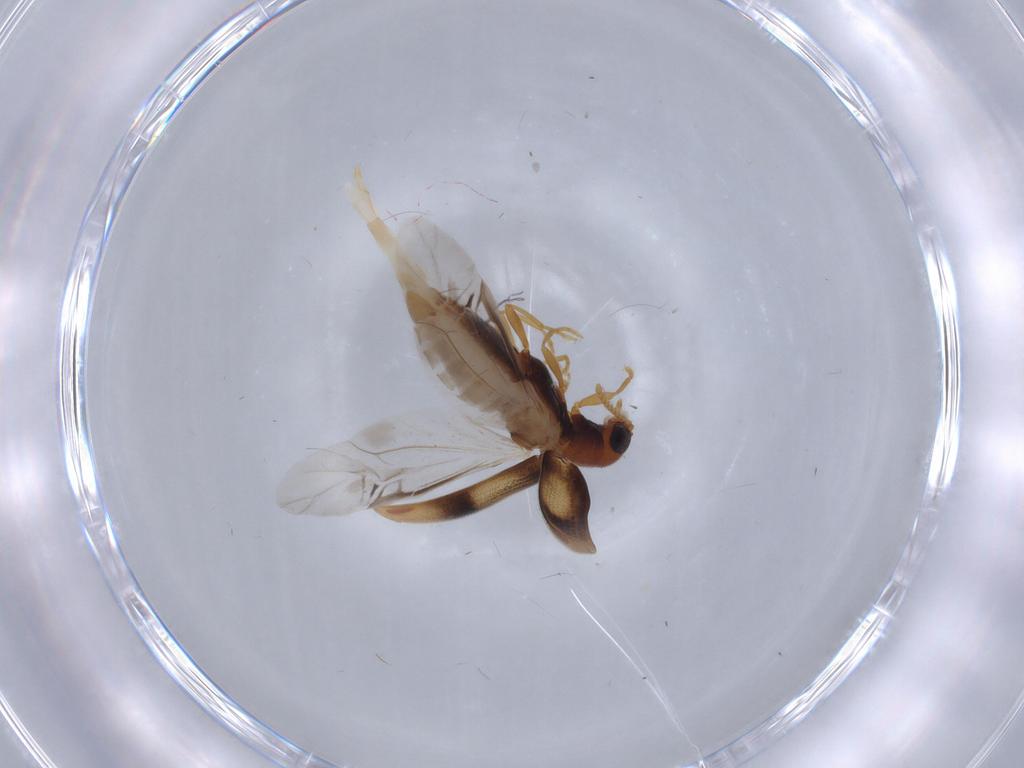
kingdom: Animalia
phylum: Arthropoda
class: Insecta
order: Coleoptera
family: Mycteridae
